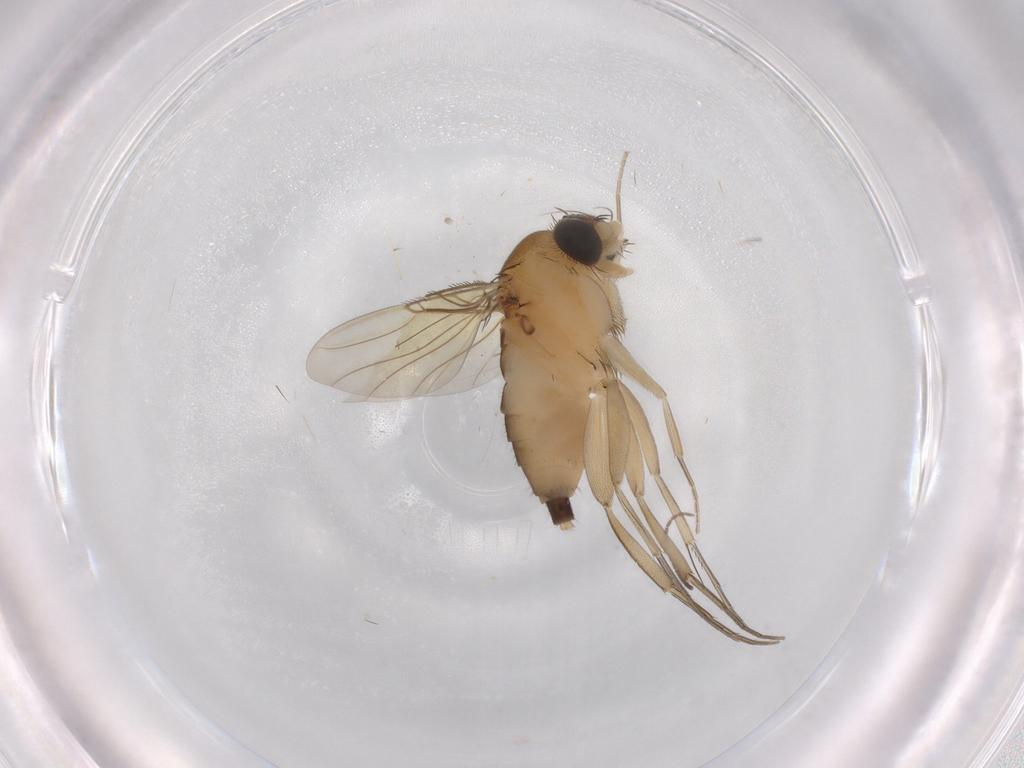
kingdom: Animalia
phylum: Arthropoda
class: Insecta
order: Diptera
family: Phoridae
